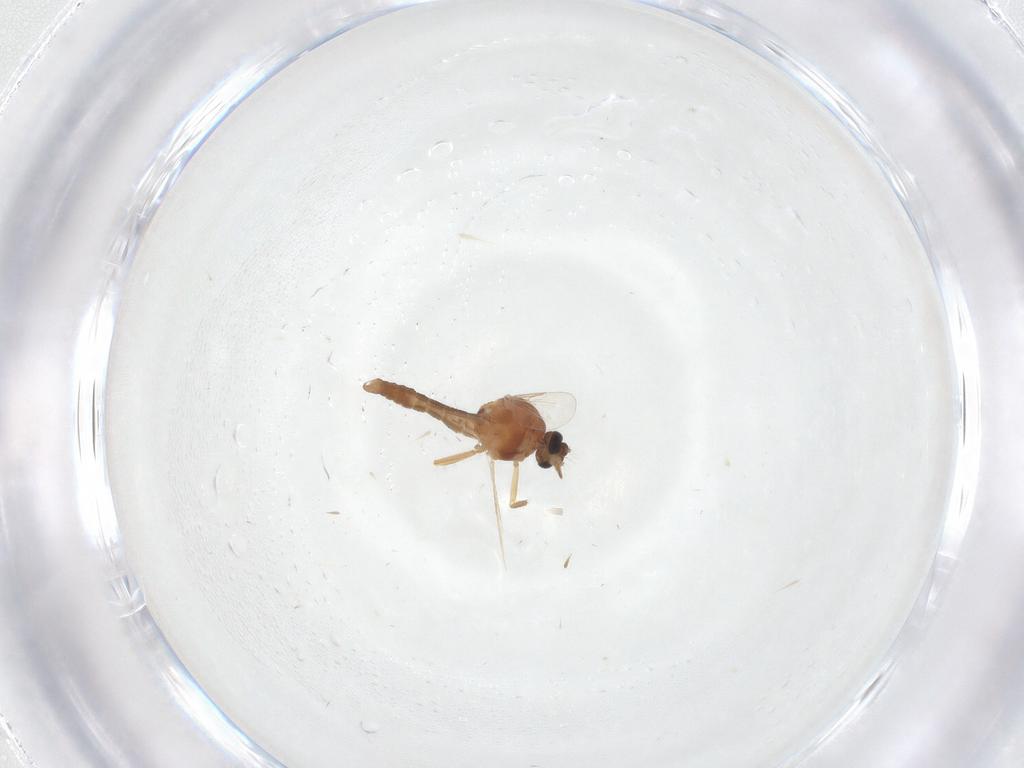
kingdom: Animalia
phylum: Arthropoda
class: Insecta
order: Diptera
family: Ceratopogonidae
